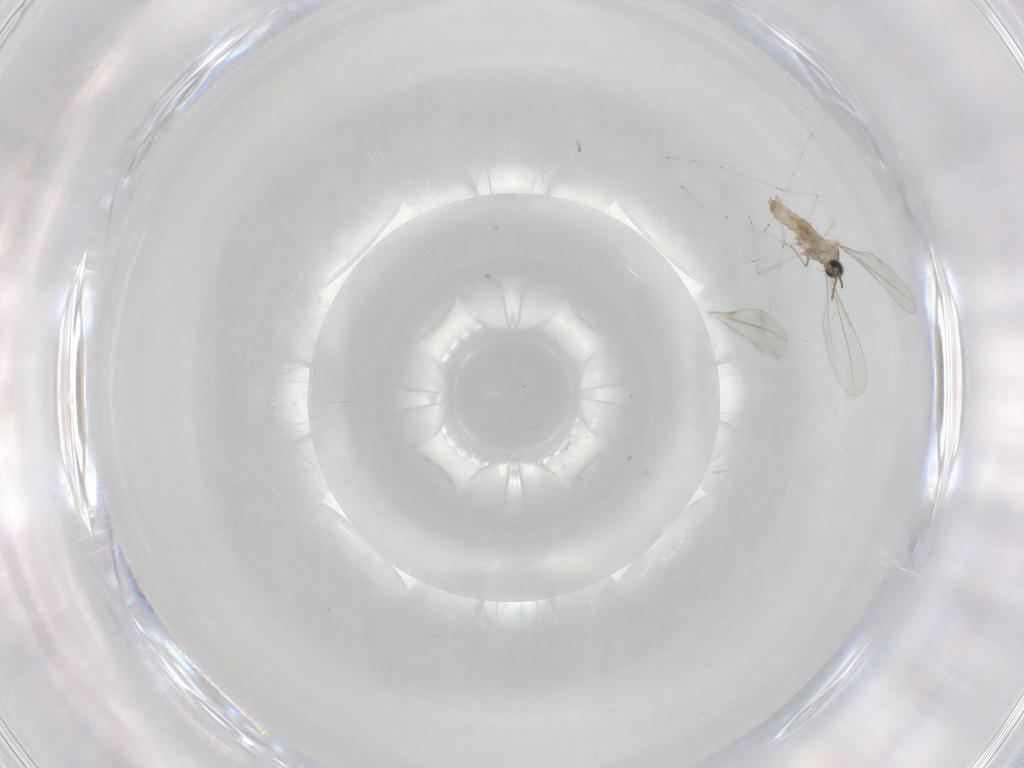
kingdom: Animalia
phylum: Arthropoda
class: Insecta
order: Diptera
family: Cecidomyiidae
